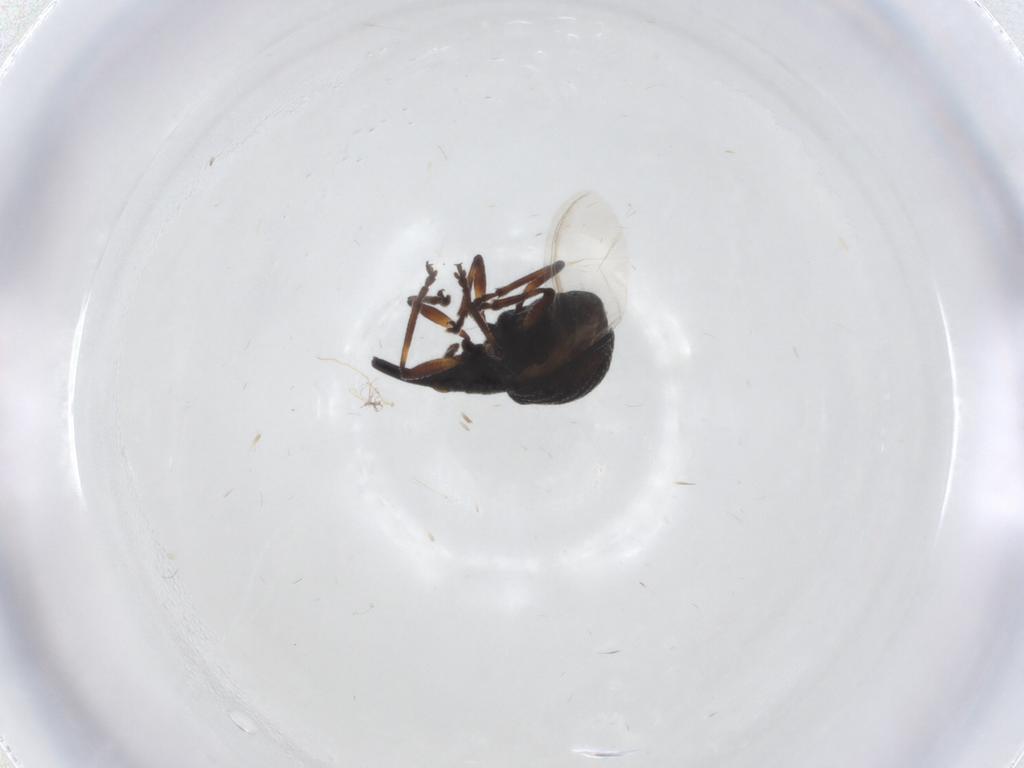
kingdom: Animalia
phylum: Arthropoda
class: Insecta
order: Coleoptera
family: Brentidae
